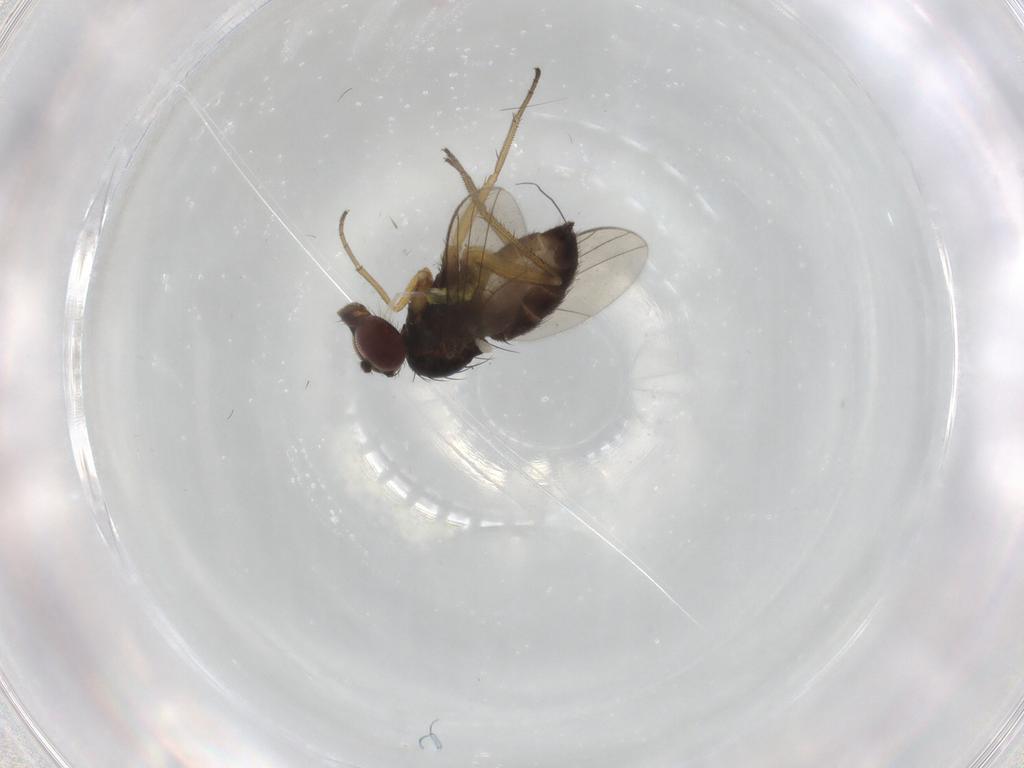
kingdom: Animalia
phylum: Arthropoda
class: Insecta
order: Diptera
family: Dolichopodidae
